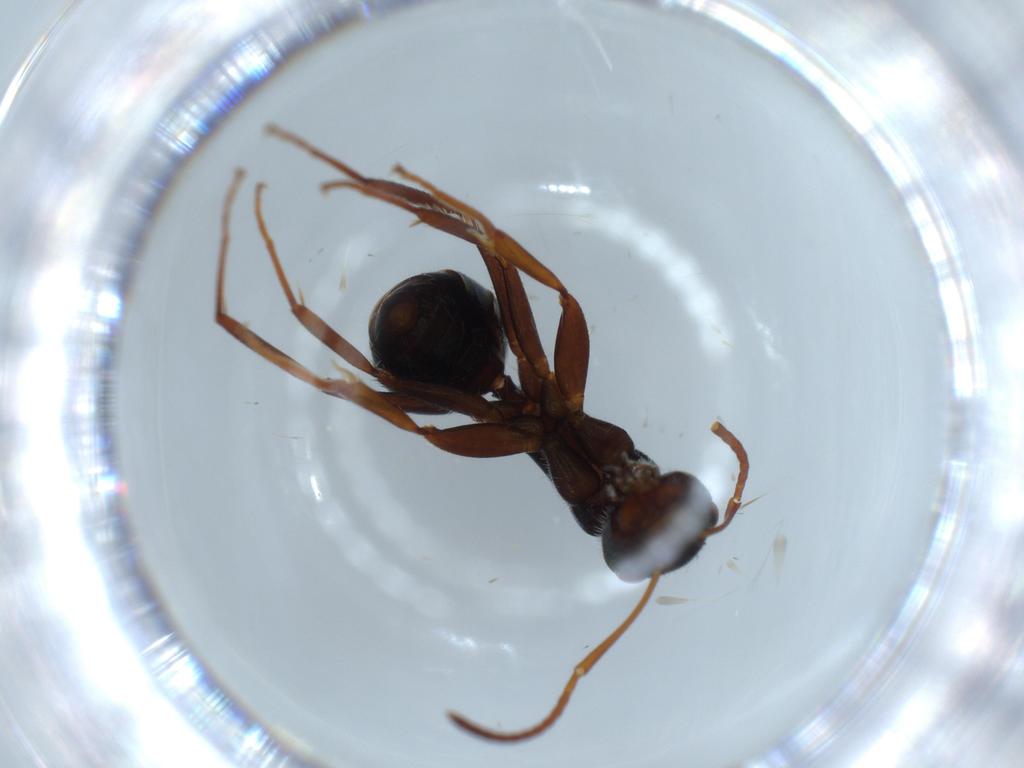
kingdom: Animalia
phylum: Arthropoda
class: Insecta
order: Hymenoptera
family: Formicidae
